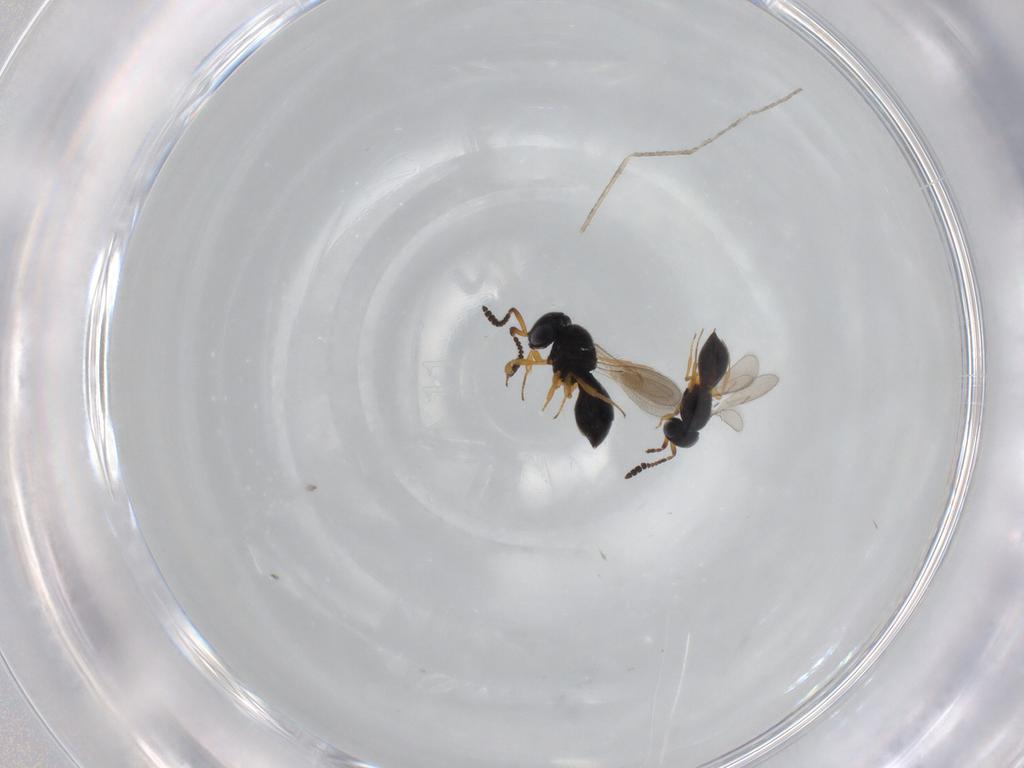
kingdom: Animalia
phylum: Arthropoda
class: Insecta
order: Hymenoptera
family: Scelionidae
